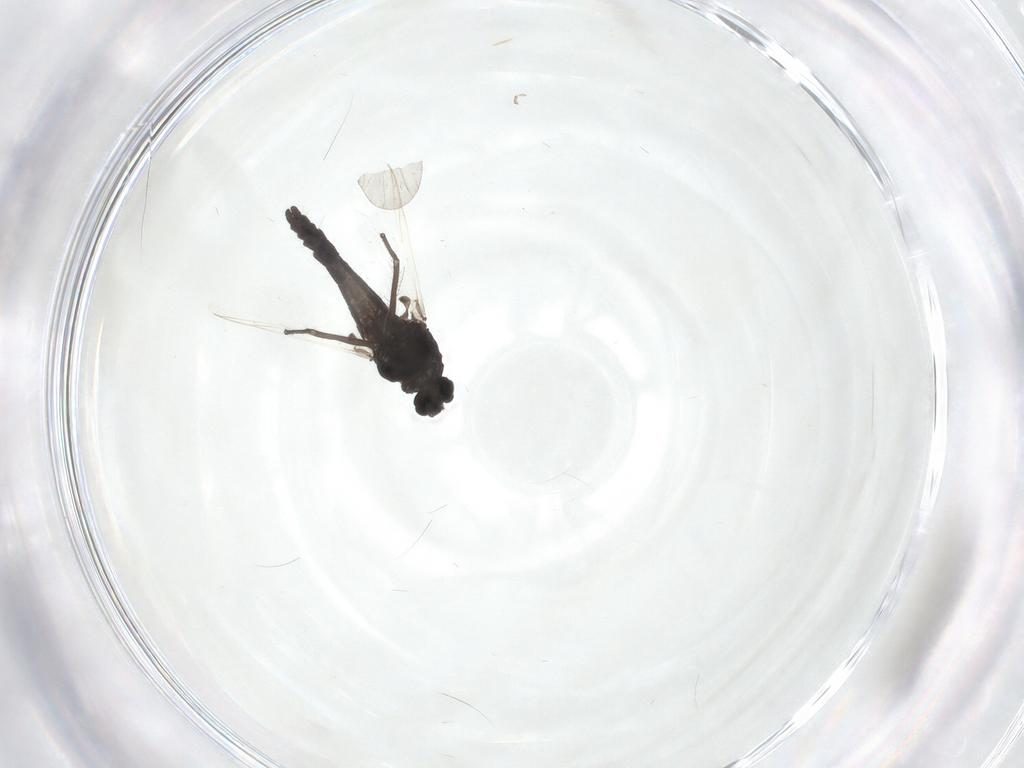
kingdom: Animalia
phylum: Arthropoda
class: Insecta
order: Diptera
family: Chironomidae
